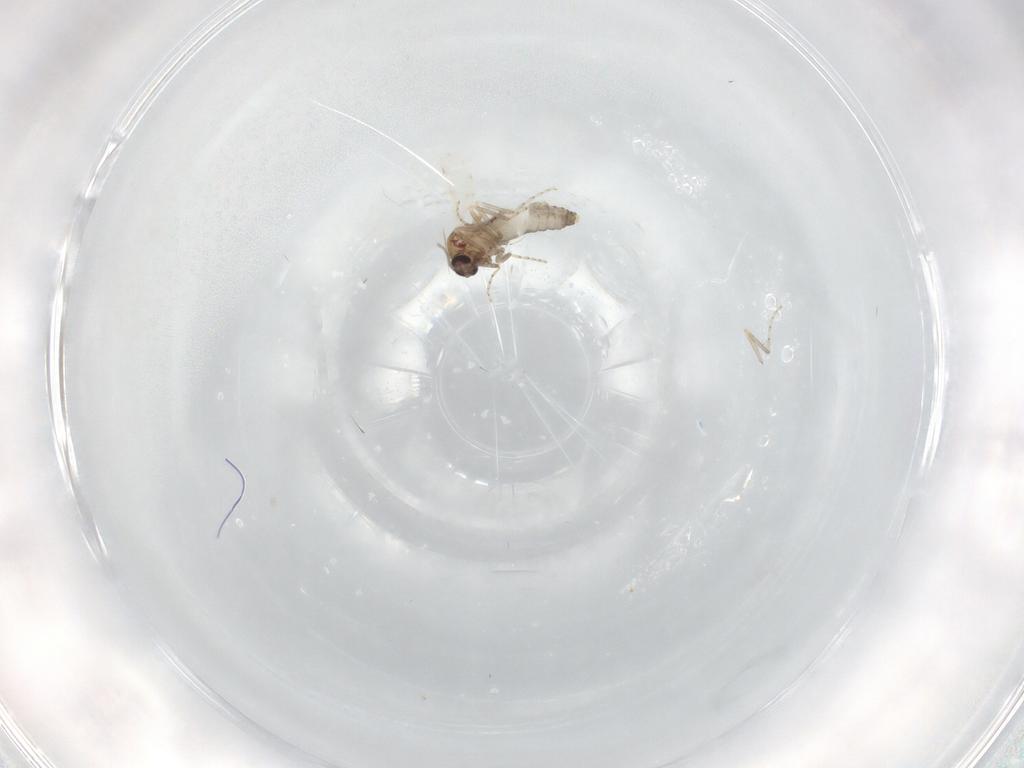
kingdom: Animalia
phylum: Arthropoda
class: Insecta
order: Diptera
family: Ceratopogonidae
